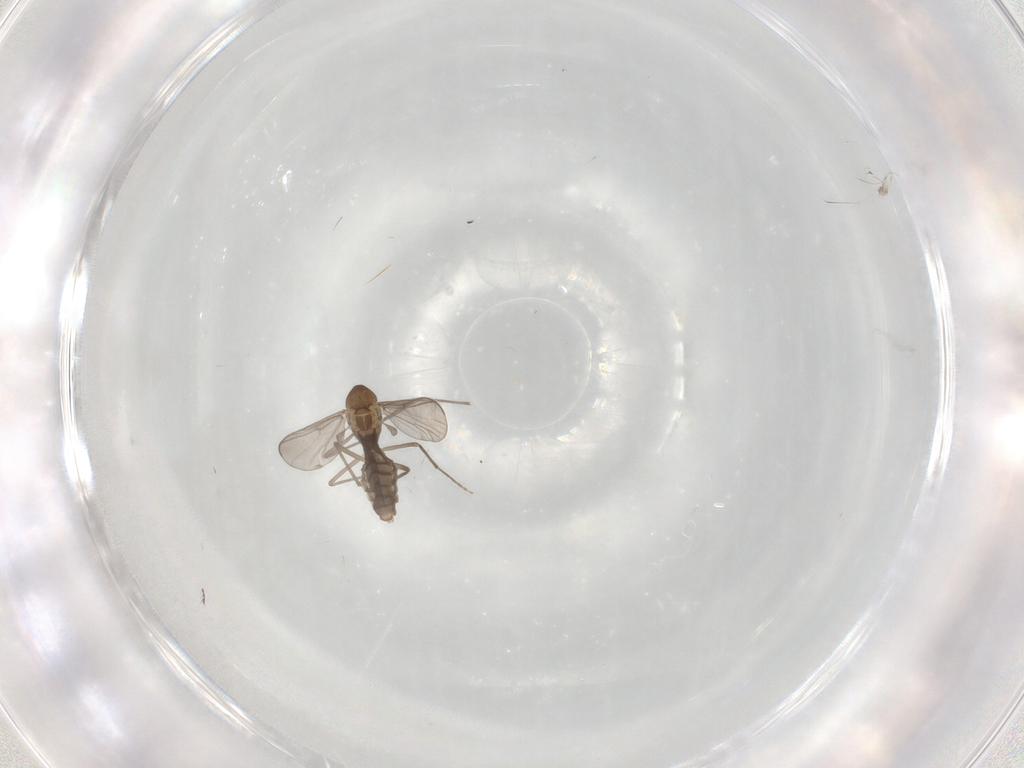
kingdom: Animalia
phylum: Arthropoda
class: Insecta
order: Diptera
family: Chironomidae
